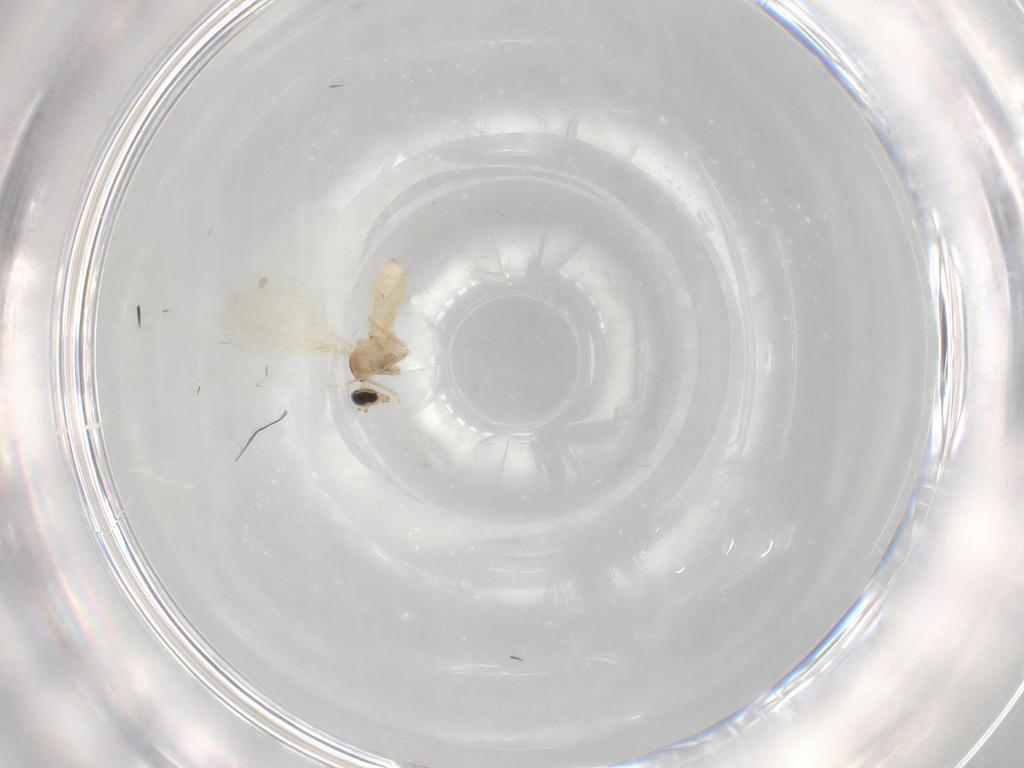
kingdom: Animalia
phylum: Arthropoda
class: Insecta
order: Diptera
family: Cecidomyiidae
